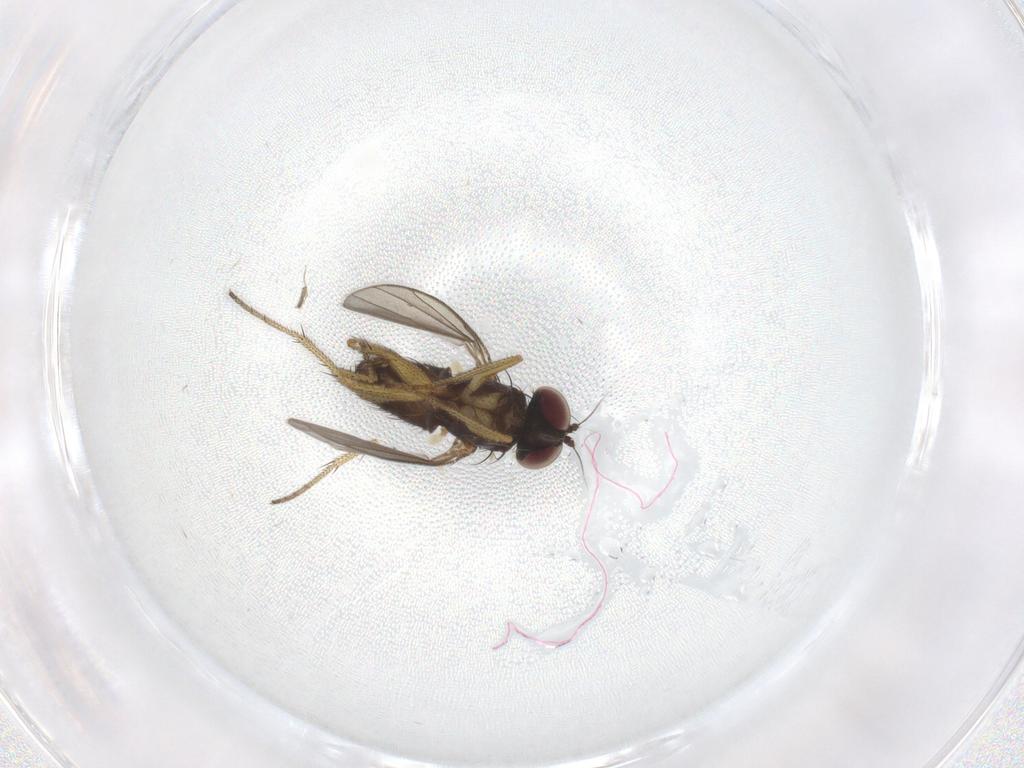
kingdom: Animalia
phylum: Arthropoda
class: Insecta
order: Diptera
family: Dolichopodidae
